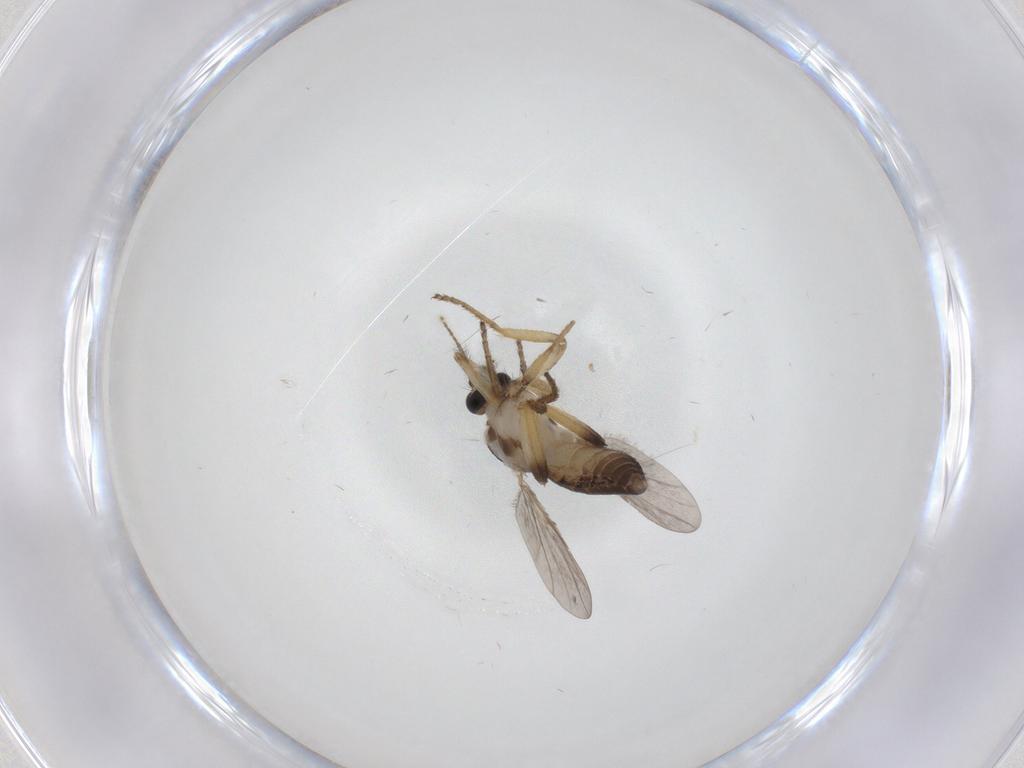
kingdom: Animalia
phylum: Arthropoda
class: Insecta
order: Diptera
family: Ceratopogonidae
